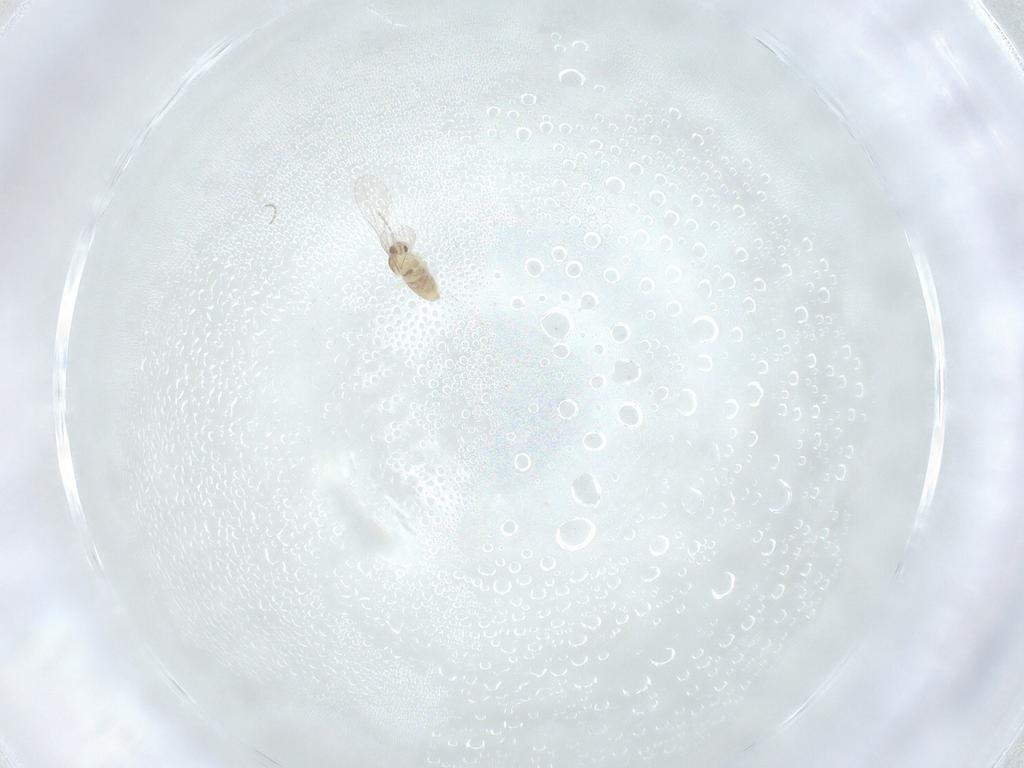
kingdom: Animalia
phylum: Arthropoda
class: Insecta
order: Diptera
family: Cecidomyiidae
